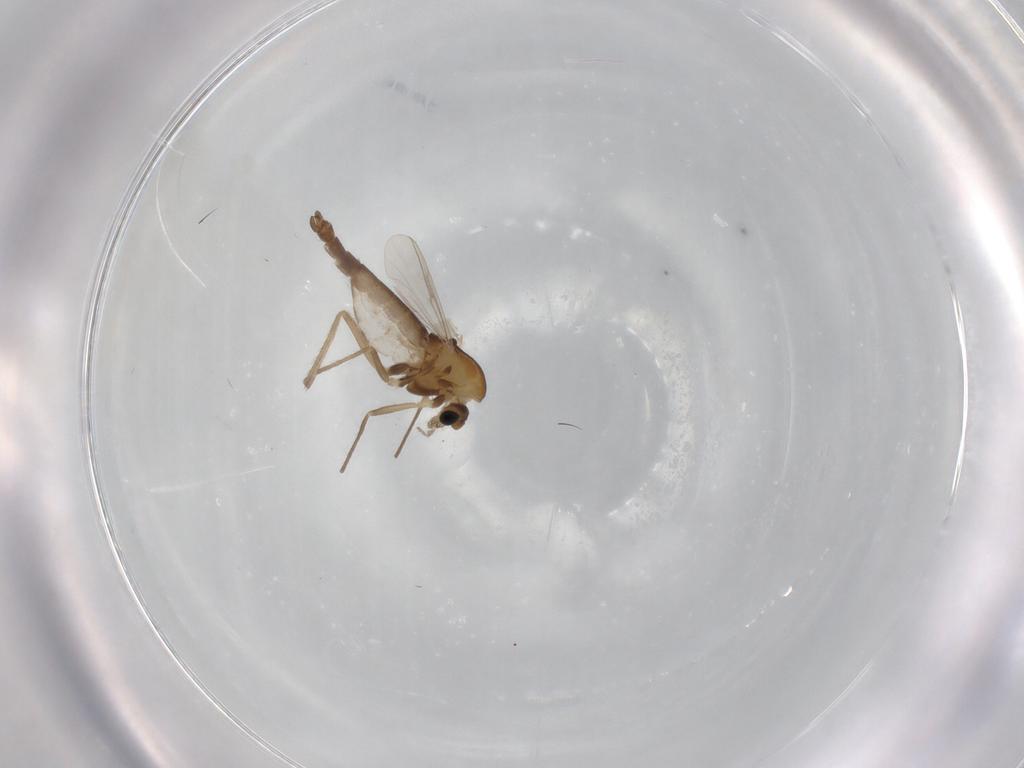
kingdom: Animalia
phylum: Arthropoda
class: Insecta
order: Diptera
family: Chironomidae
